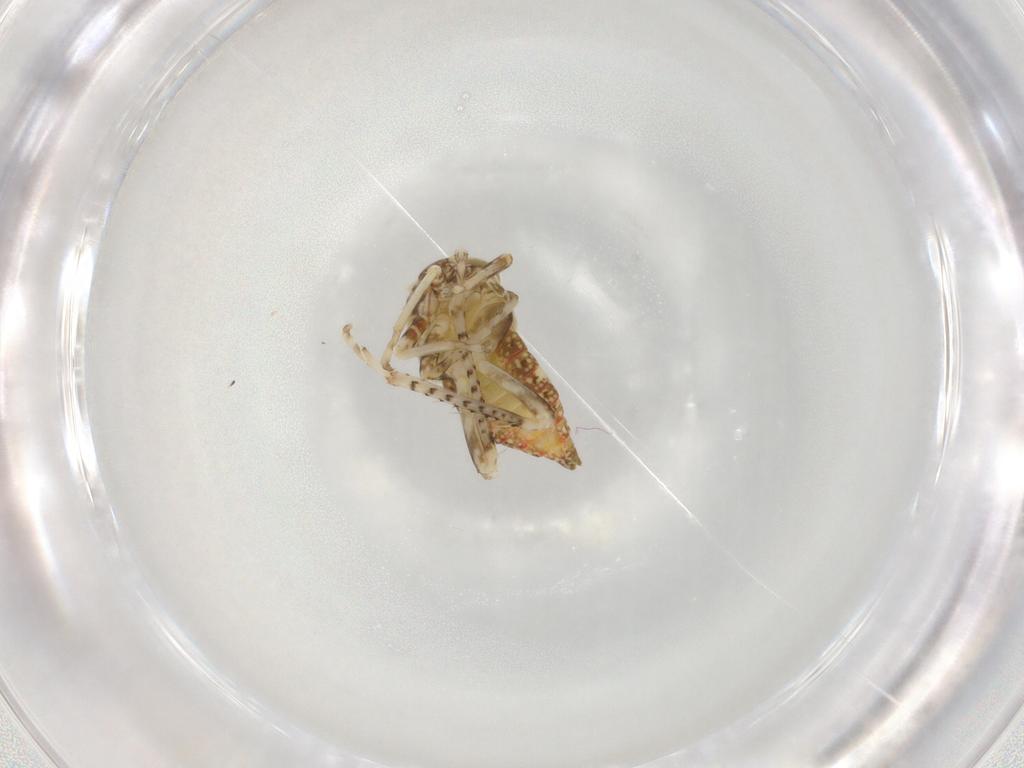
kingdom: Animalia
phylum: Arthropoda
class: Insecta
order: Hemiptera
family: Cicadellidae
